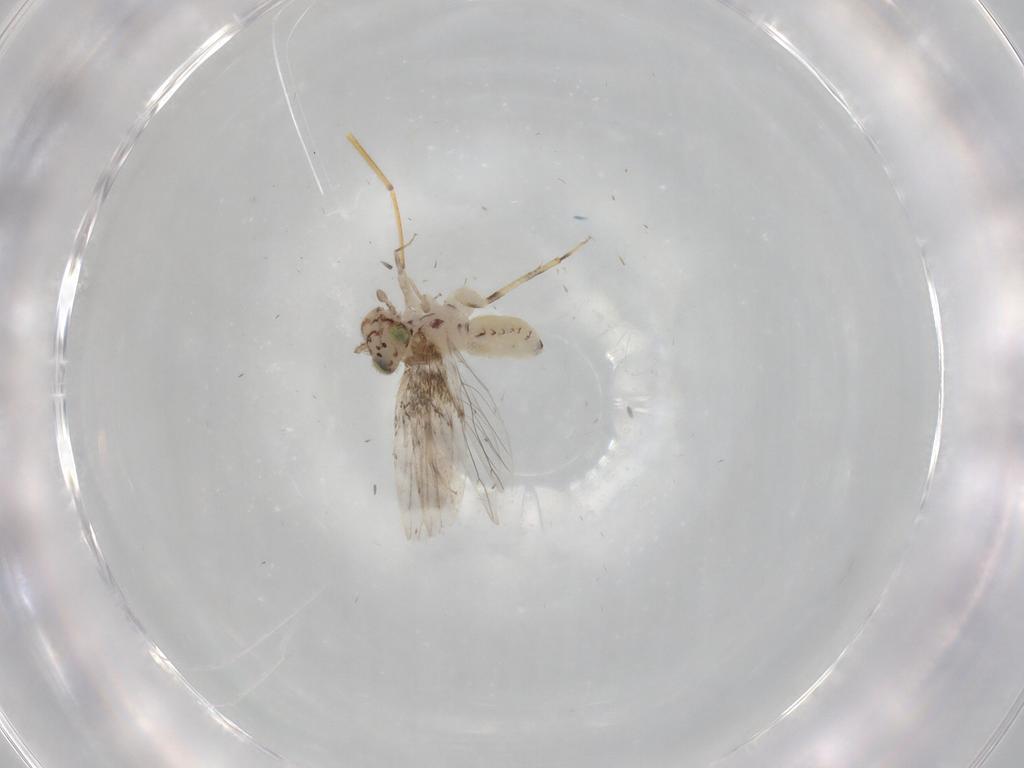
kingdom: Animalia
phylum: Arthropoda
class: Insecta
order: Psocodea
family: Lepidopsocidae
